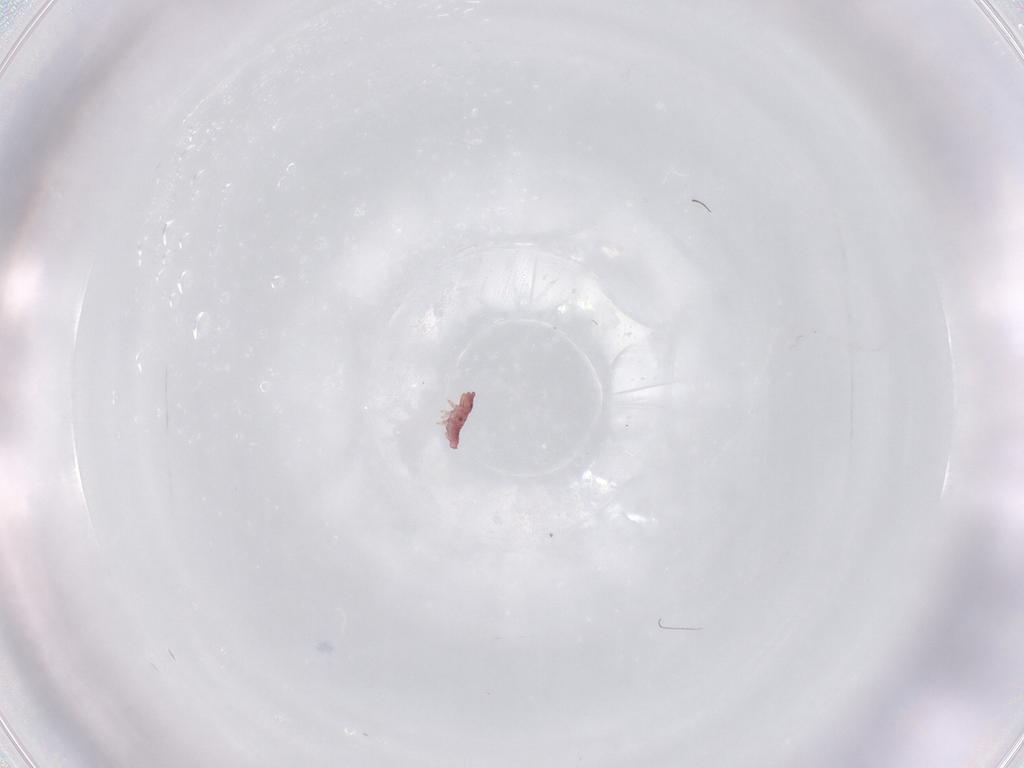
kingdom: Animalia
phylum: Arthropoda
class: Collembola
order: Poduromorpha
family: Hypogastruridae
